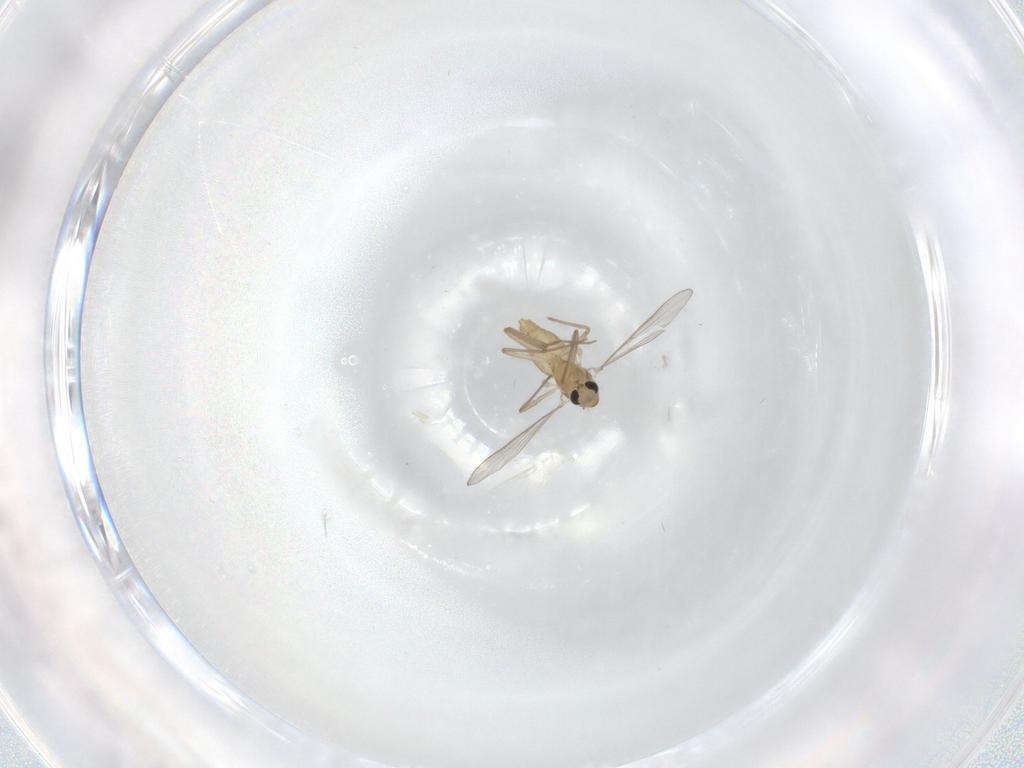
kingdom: Animalia
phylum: Arthropoda
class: Insecta
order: Diptera
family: Chironomidae
